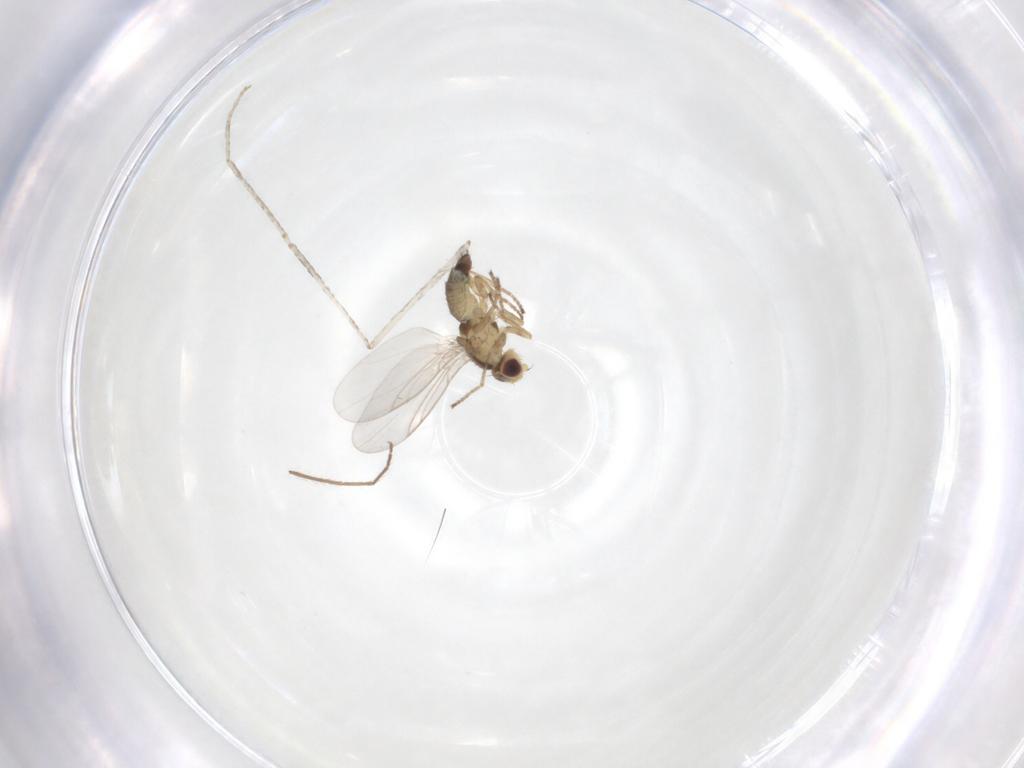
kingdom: Animalia
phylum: Arthropoda
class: Insecta
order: Diptera
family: Agromyzidae
